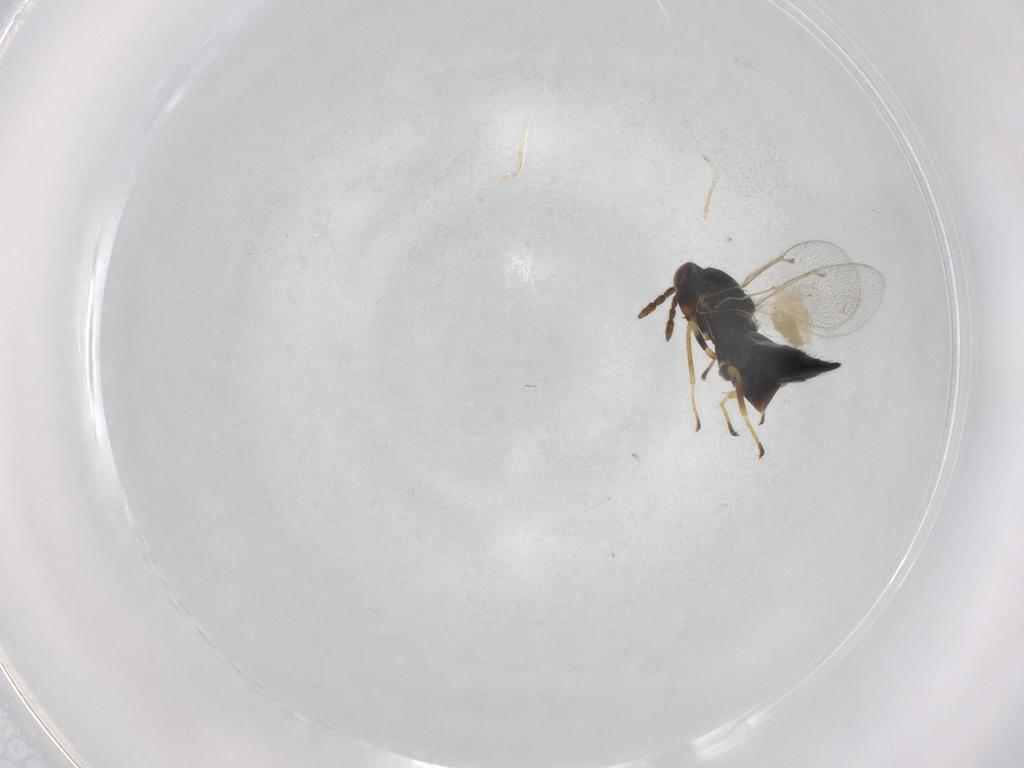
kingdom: Animalia
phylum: Arthropoda
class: Insecta
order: Hymenoptera
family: Eulophidae
